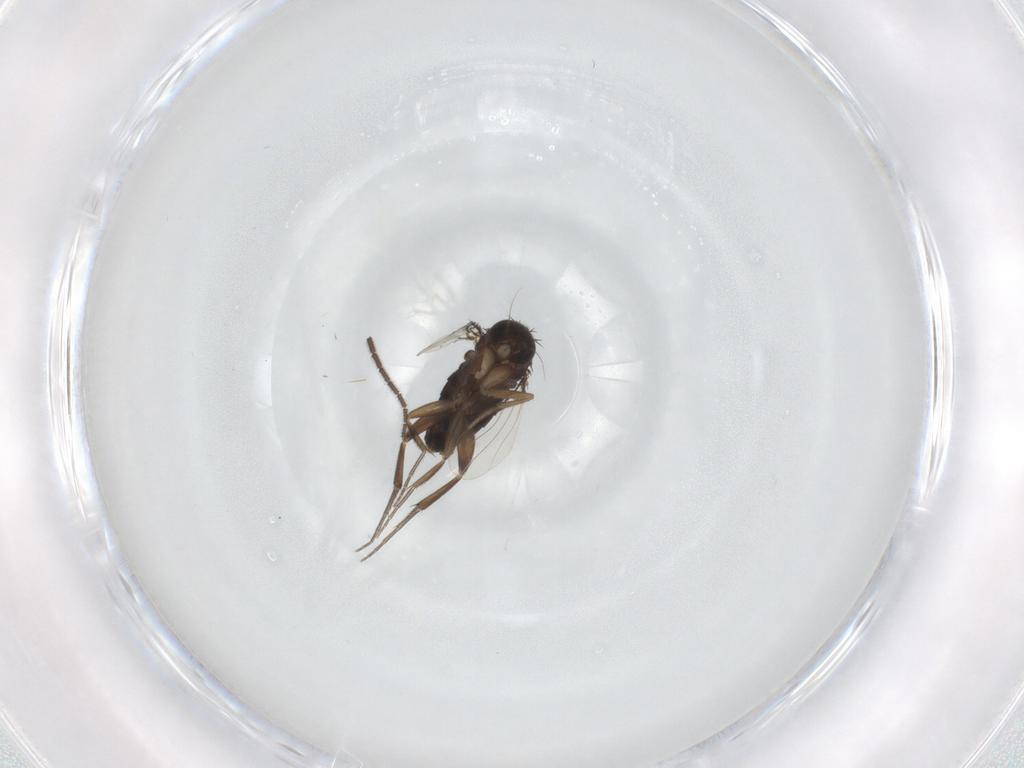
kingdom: Animalia
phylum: Arthropoda
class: Insecta
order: Diptera
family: Phoridae
